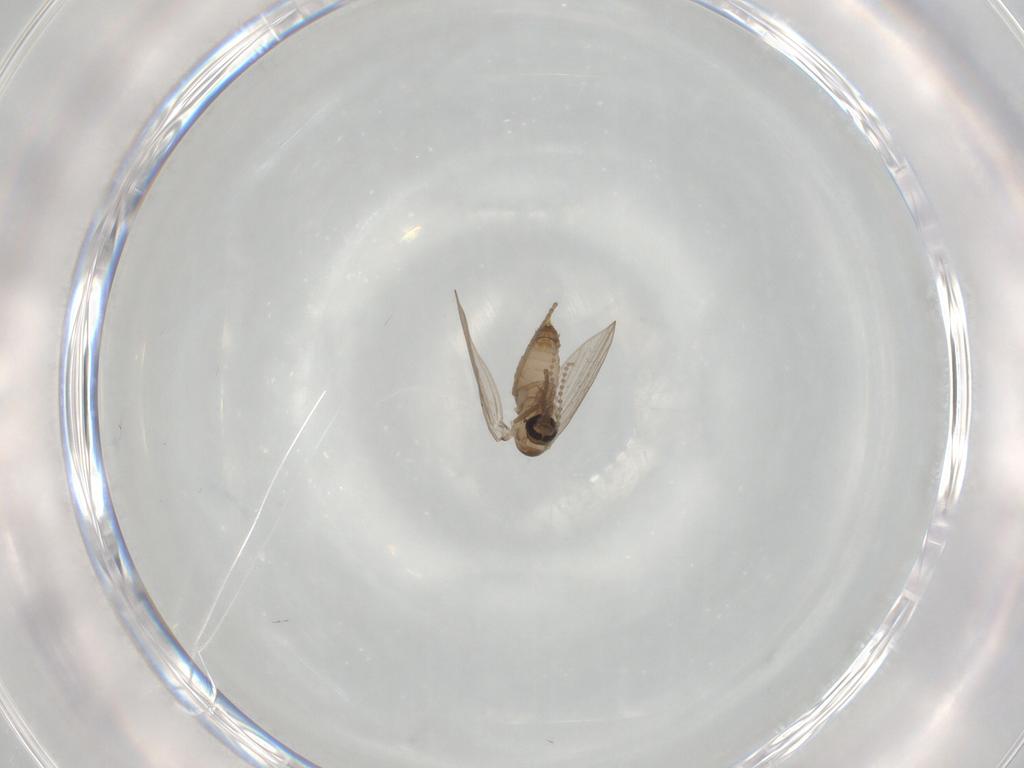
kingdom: Animalia
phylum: Arthropoda
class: Insecta
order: Diptera
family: Psychodidae
